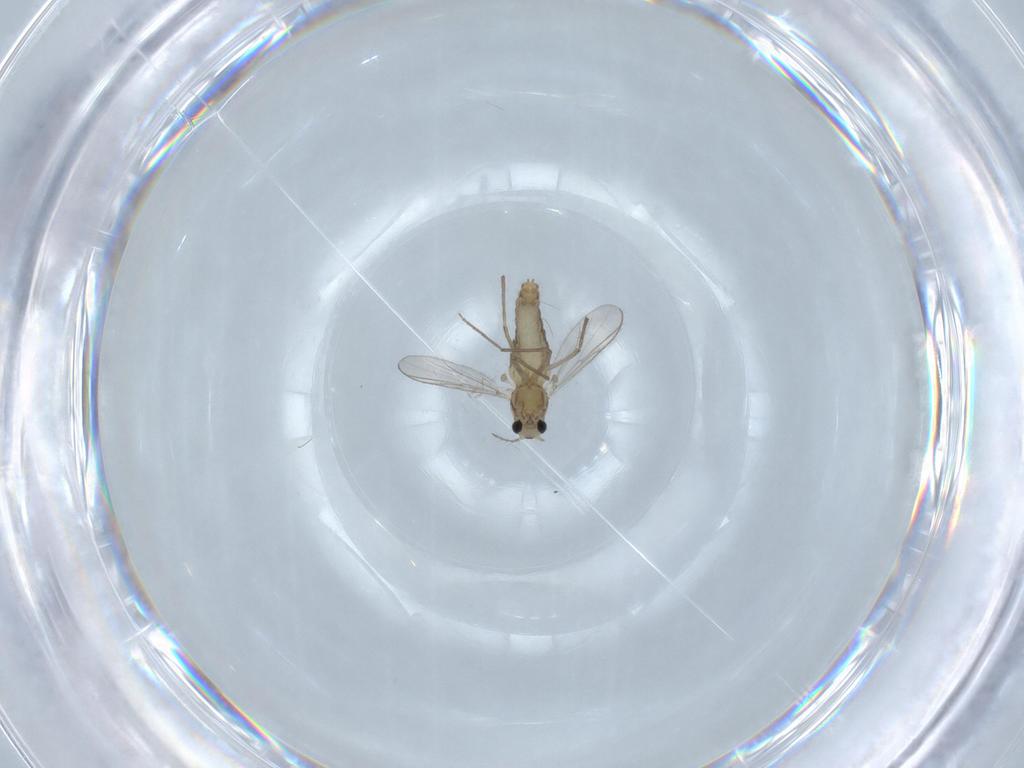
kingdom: Animalia
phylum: Arthropoda
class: Insecta
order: Diptera
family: Chironomidae
